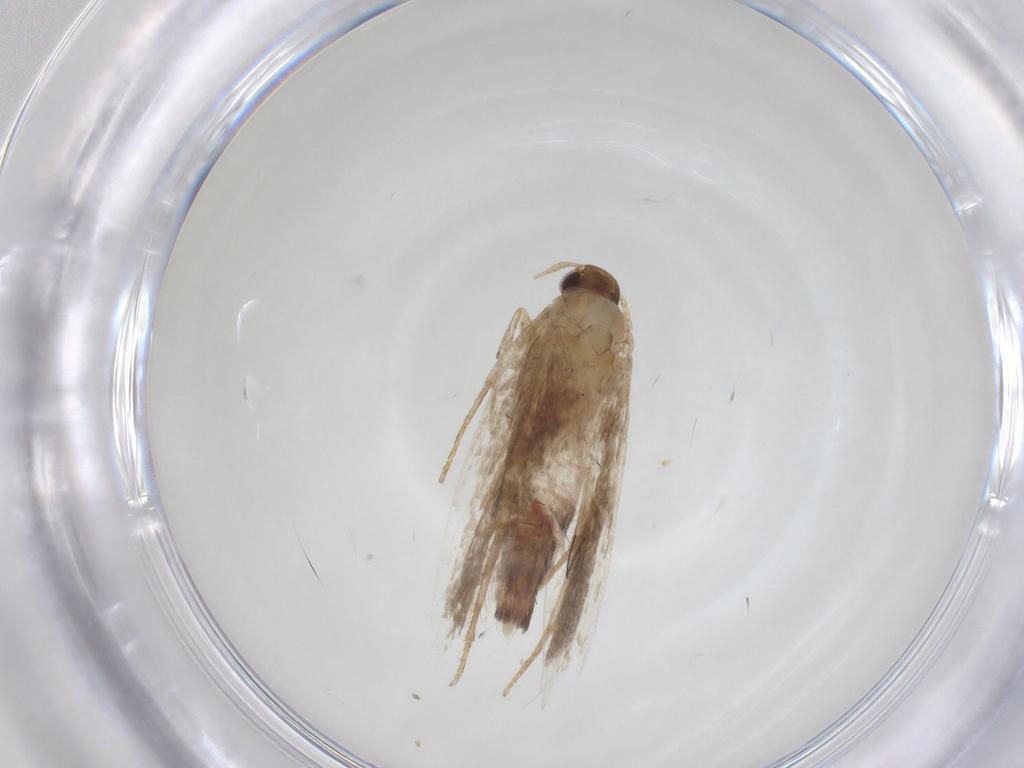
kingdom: Animalia
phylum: Arthropoda
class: Insecta
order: Lepidoptera
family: Gelechiidae
